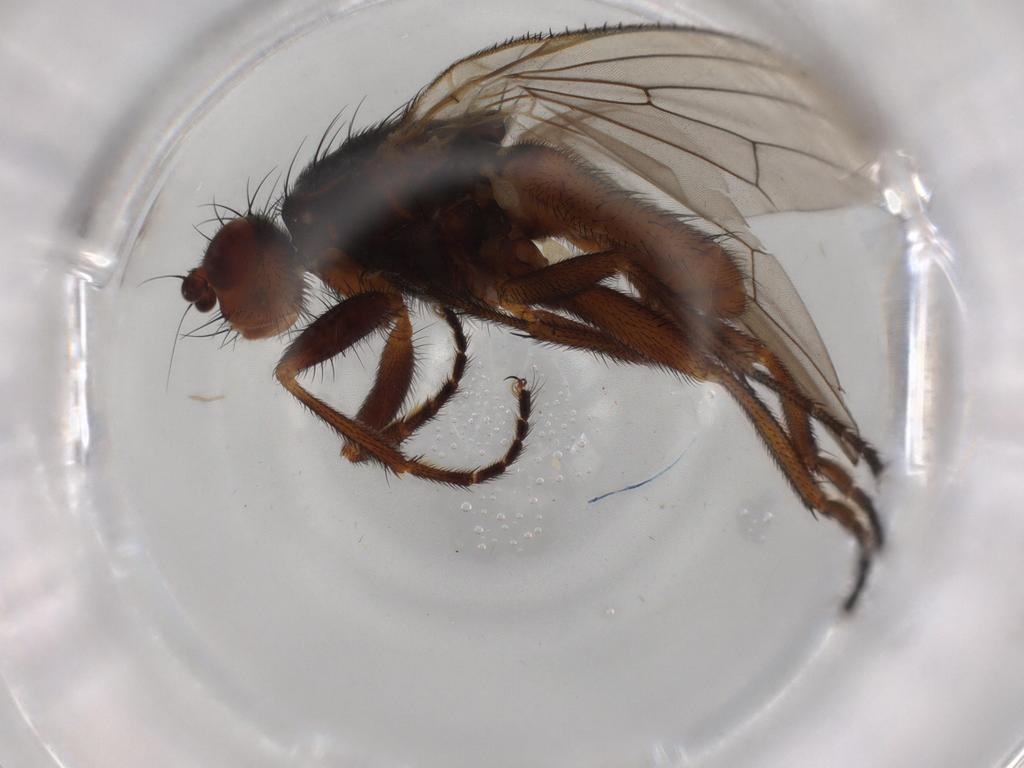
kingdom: Animalia
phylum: Arthropoda
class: Insecta
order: Diptera
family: Heleomyzidae
